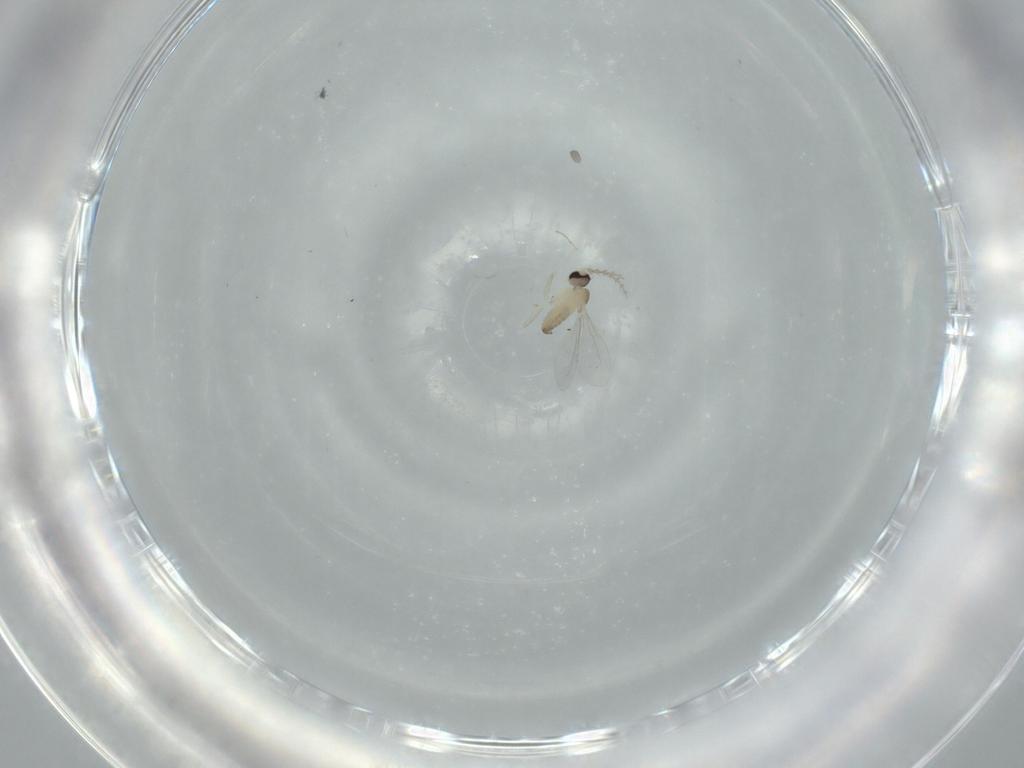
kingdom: Animalia
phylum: Arthropoda
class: Insecta
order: Diptera
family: Cecidomyiidae
